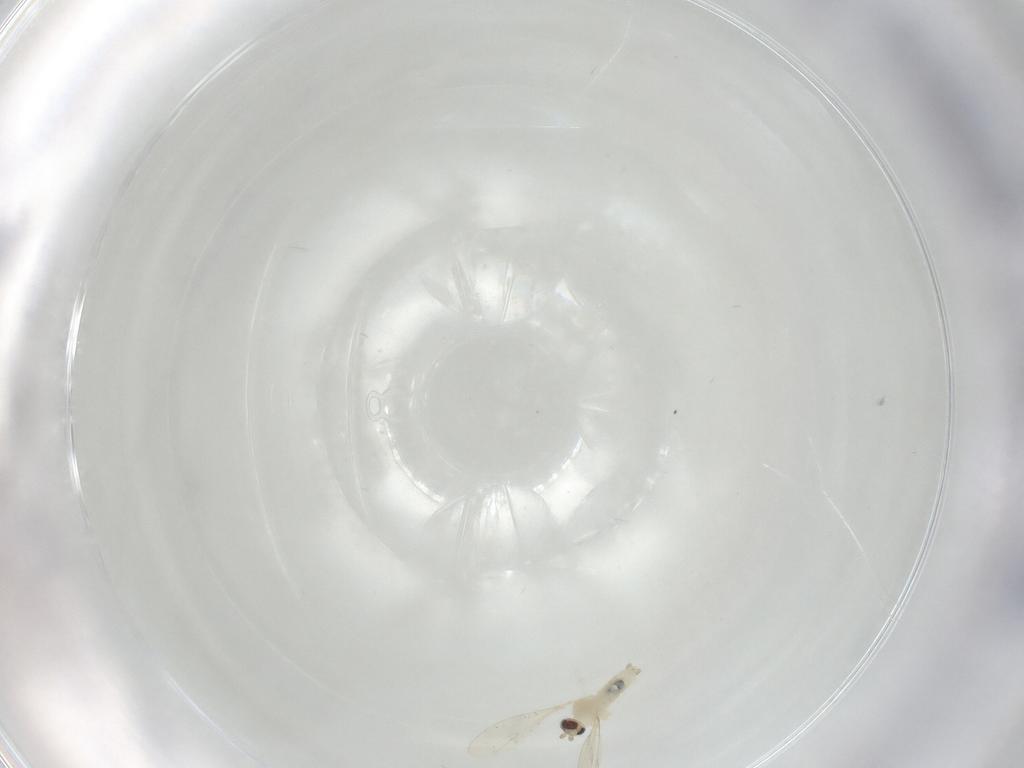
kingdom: Animalia
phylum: Arthropoda
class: Insecta
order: Diptera
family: Cecidomyiidae
